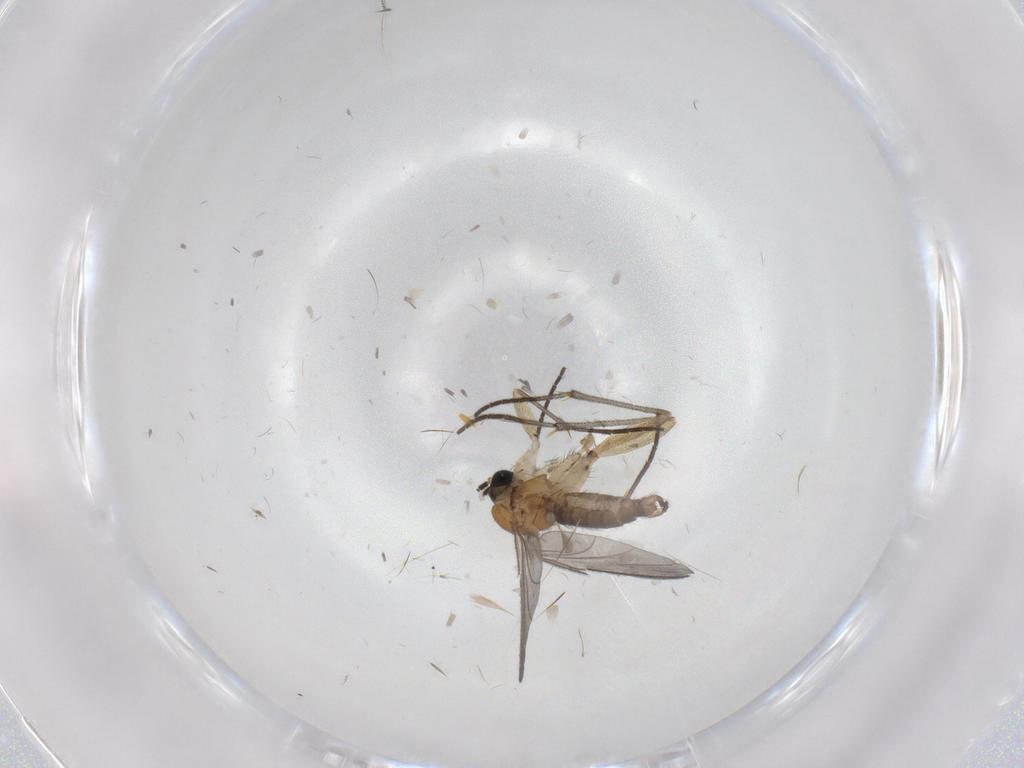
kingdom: Animalia
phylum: Arthropoda
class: Insecta
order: Diptera
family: Sciaridae
